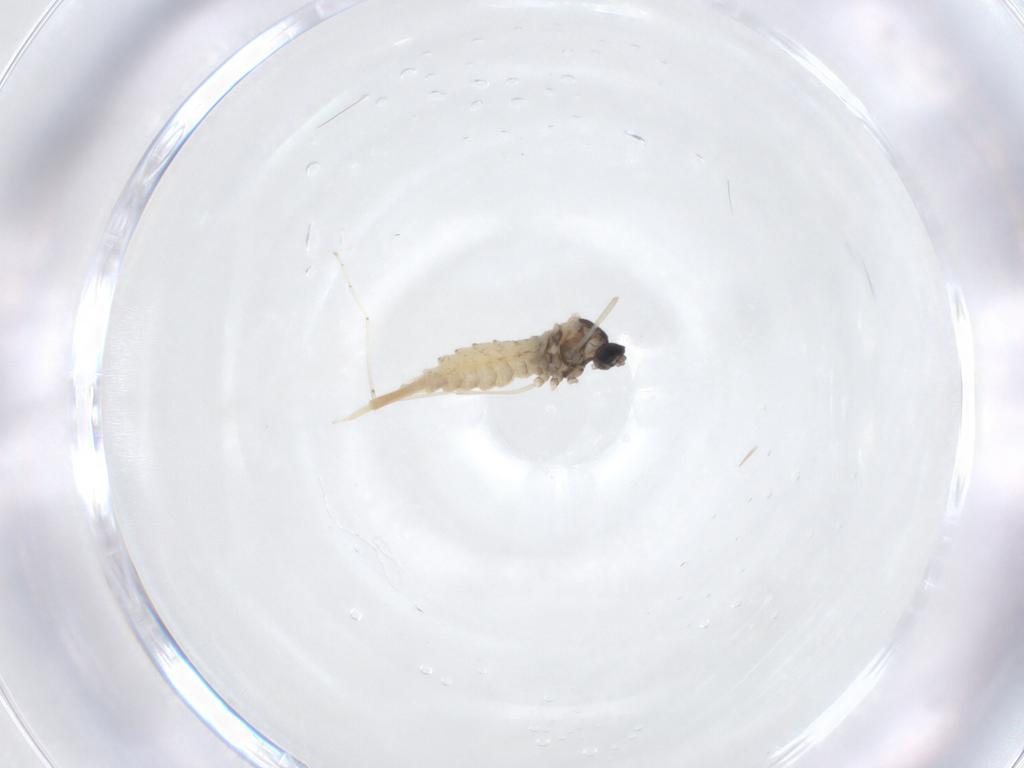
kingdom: Animalia
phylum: Arthropoda
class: Insecta
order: Diptera
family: Cecidomyiidae
